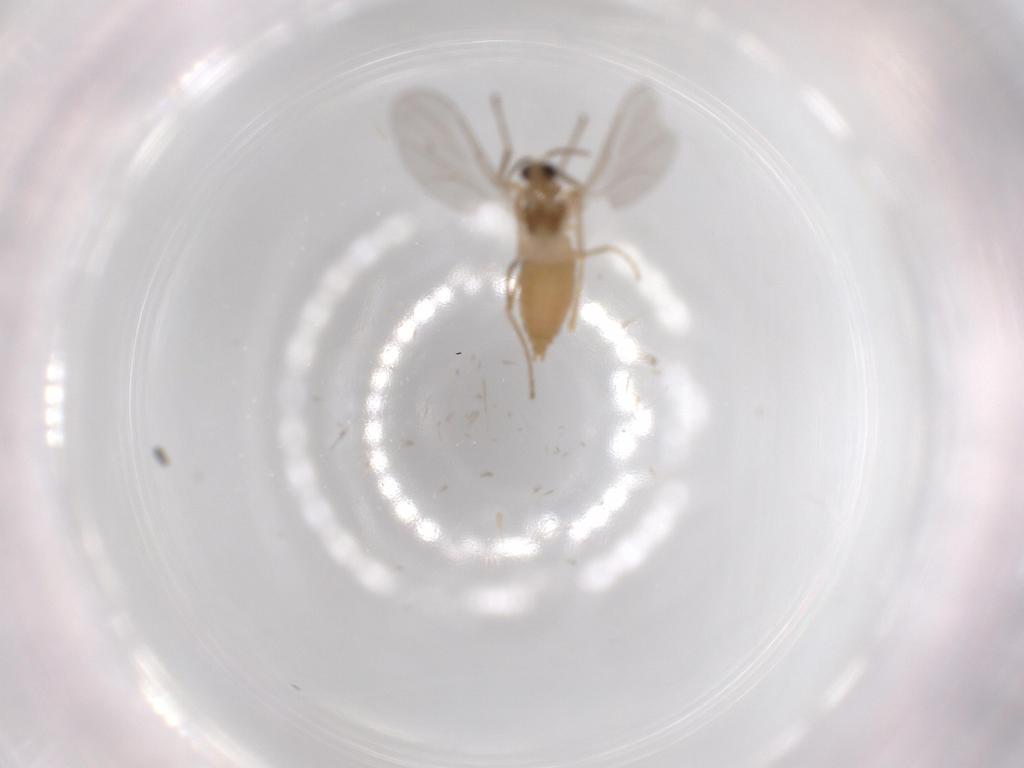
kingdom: Animalia
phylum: Arthropoda
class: Insecta
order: Diptera
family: Cecidomyiidae
